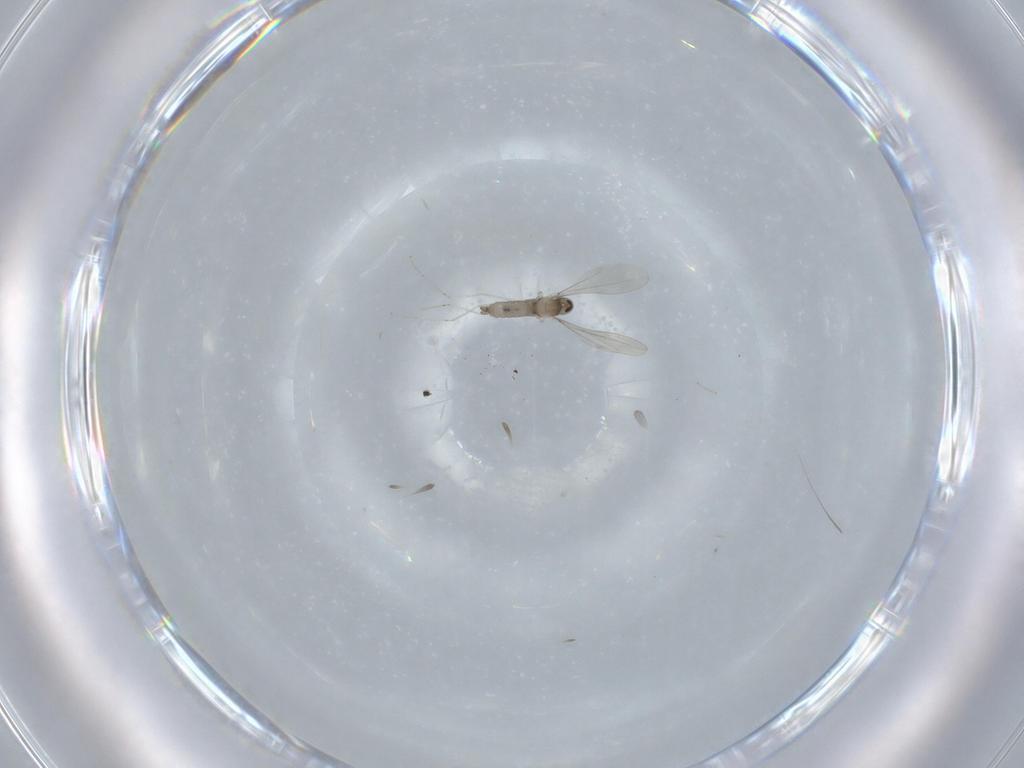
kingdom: Animalia
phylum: Arthropoda
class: Insecta
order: Diptera
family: Cecidomyiidae
